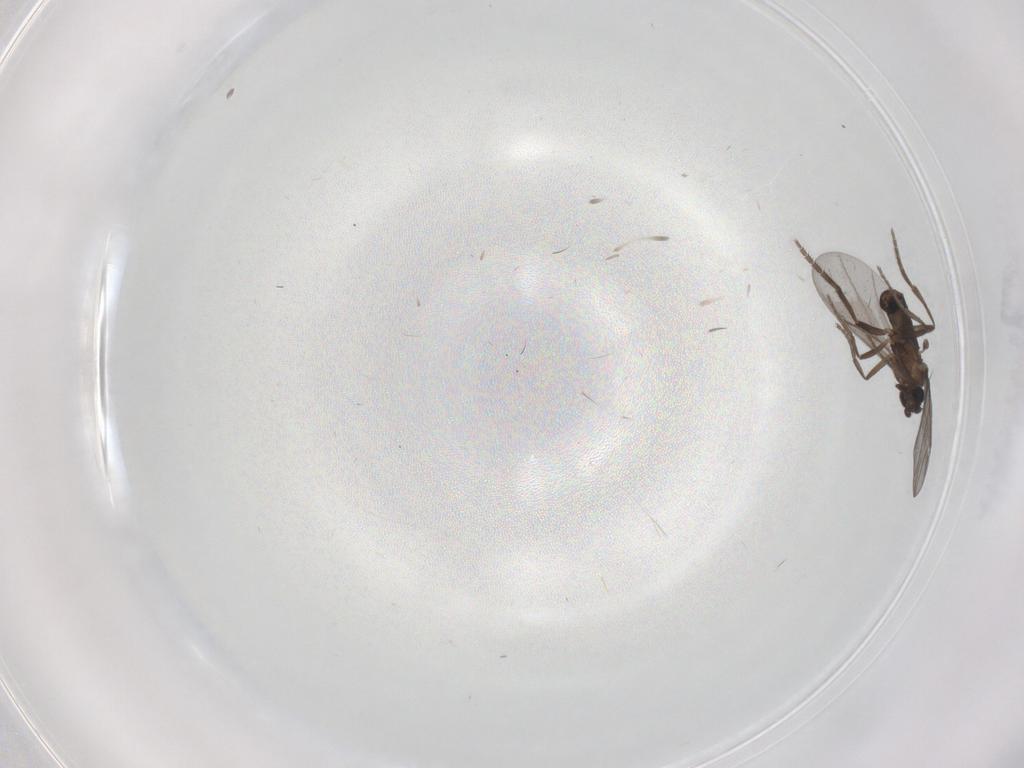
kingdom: Animalia
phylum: Arthropoda
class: Insecta
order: Diptera
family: Phoridae
